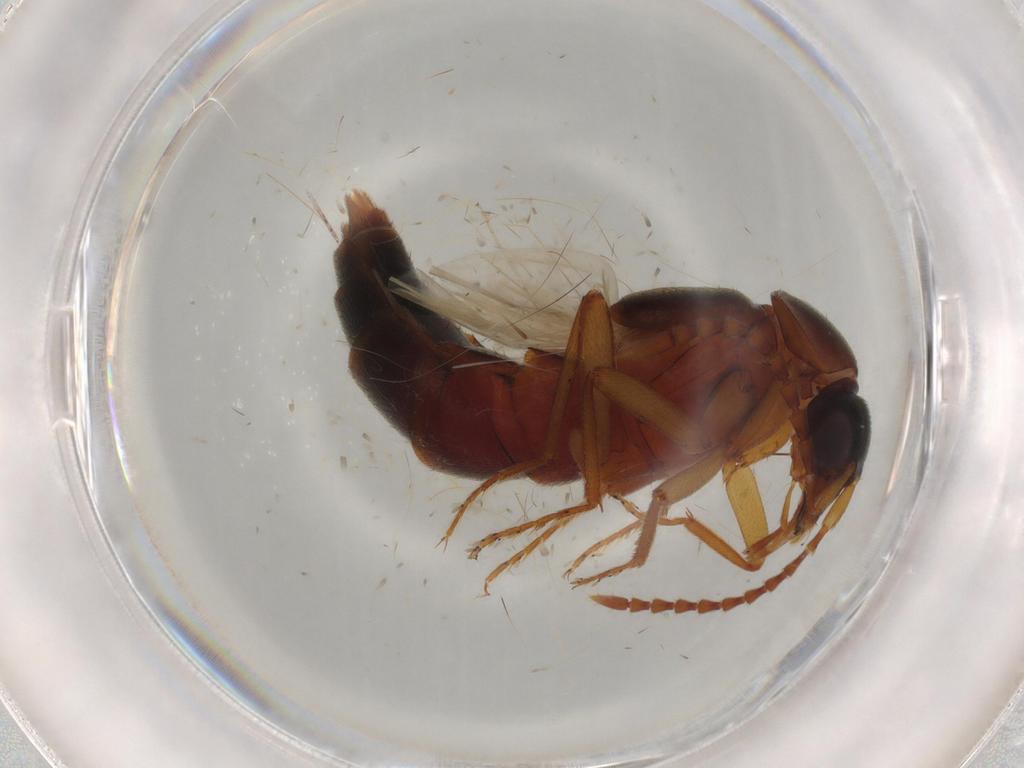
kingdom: Animalia
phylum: Arthropoda
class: Insecta
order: Coleoptera
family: Staphylinidae
